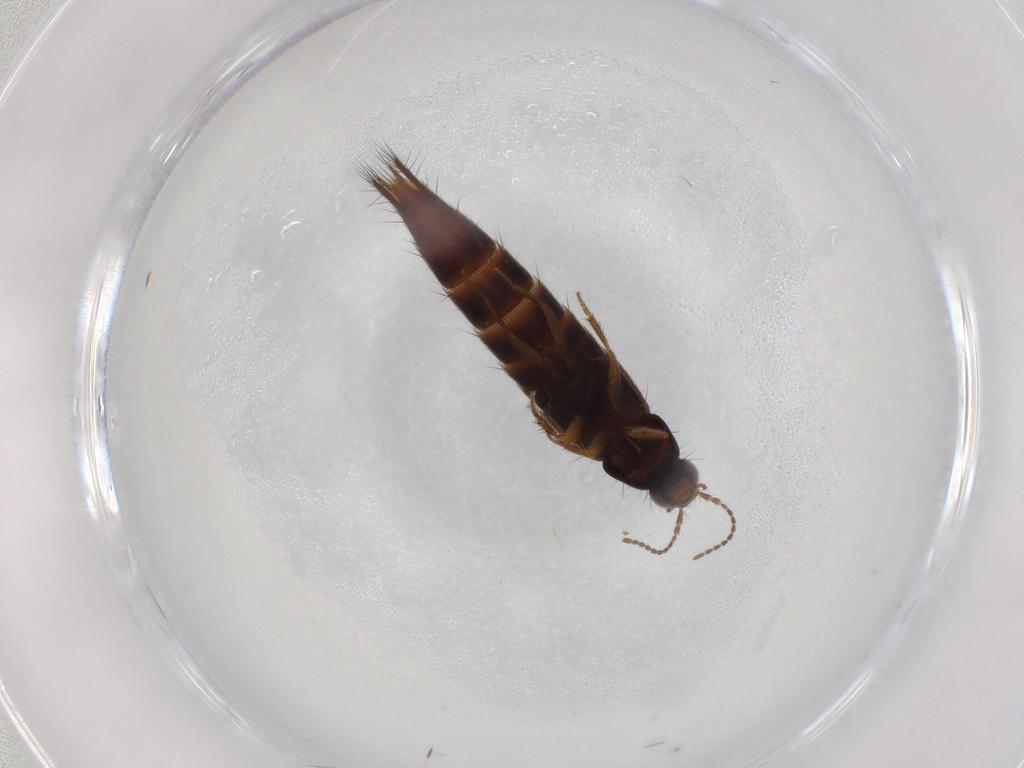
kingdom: Animalia
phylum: Arthropoda
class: Insecta
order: Coleoptera
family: Staphylinidae
